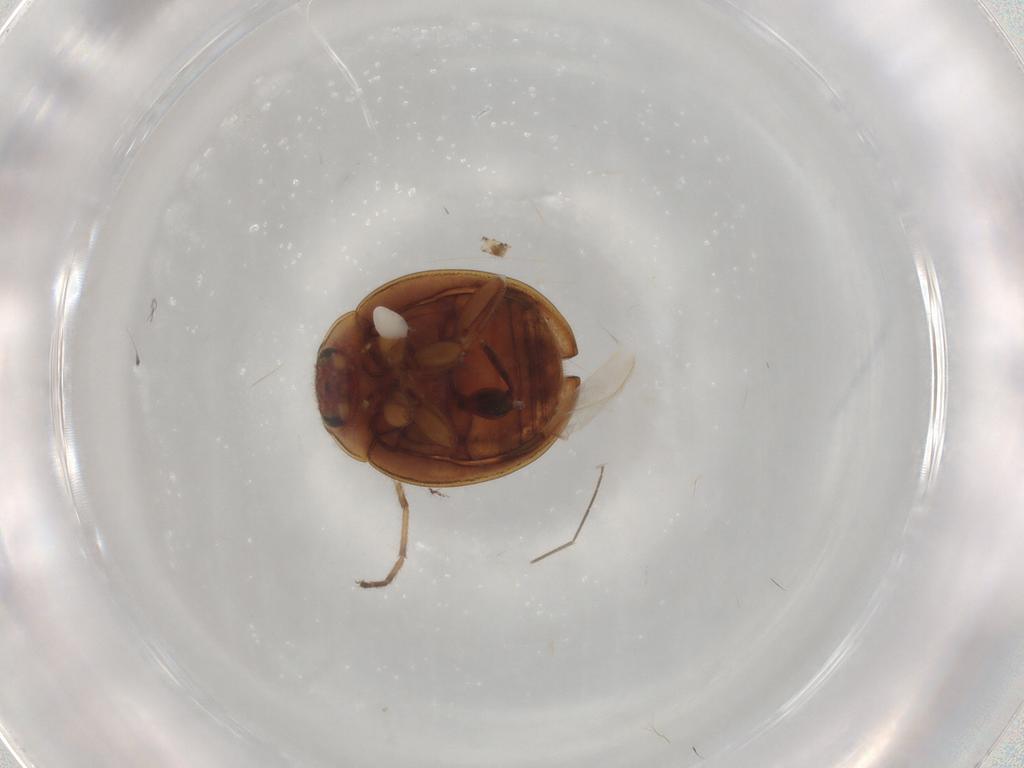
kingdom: Animalia
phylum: Arthropoda
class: Insecta
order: Coleoptera
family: Coccinellidae
